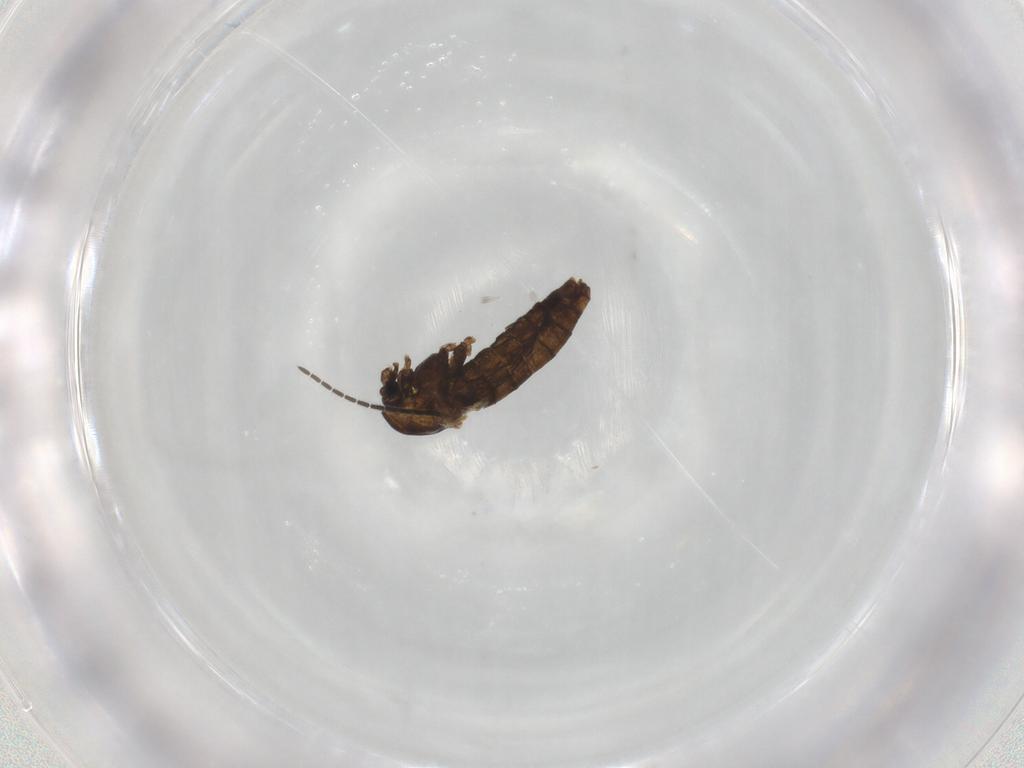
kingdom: Animalia
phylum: Arthropoda
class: Insecta
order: Diptera
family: Chironomidae
